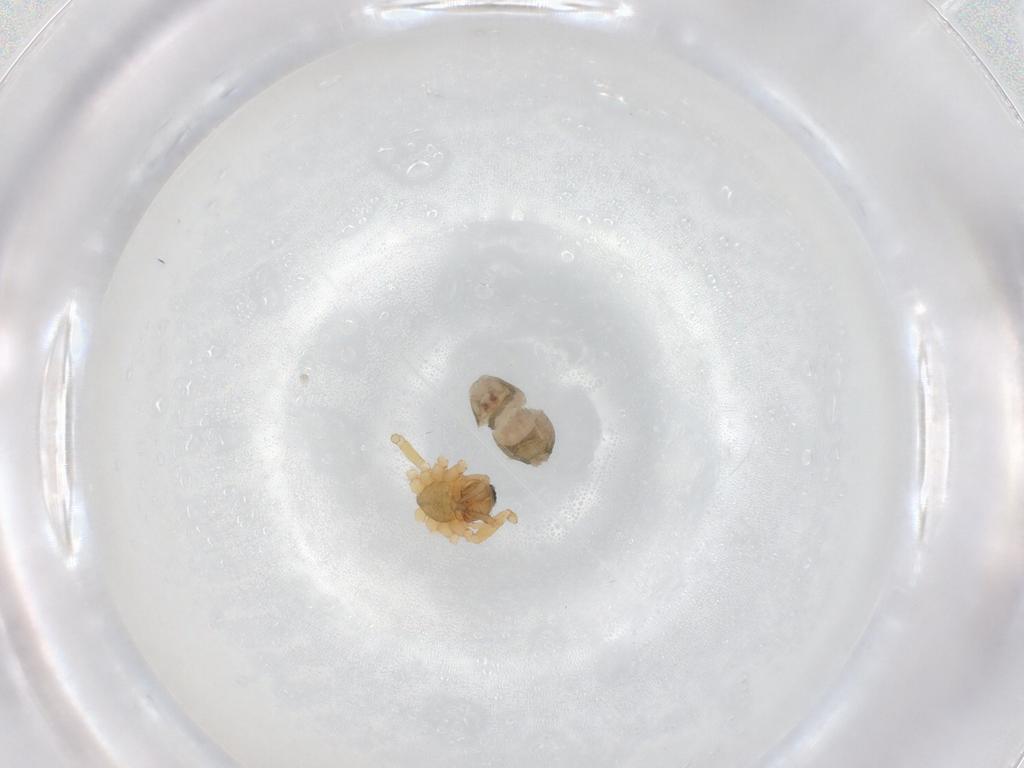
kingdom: Animalia
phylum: Arthropoda
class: Arachnida
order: Araneae
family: Linyphiidae
